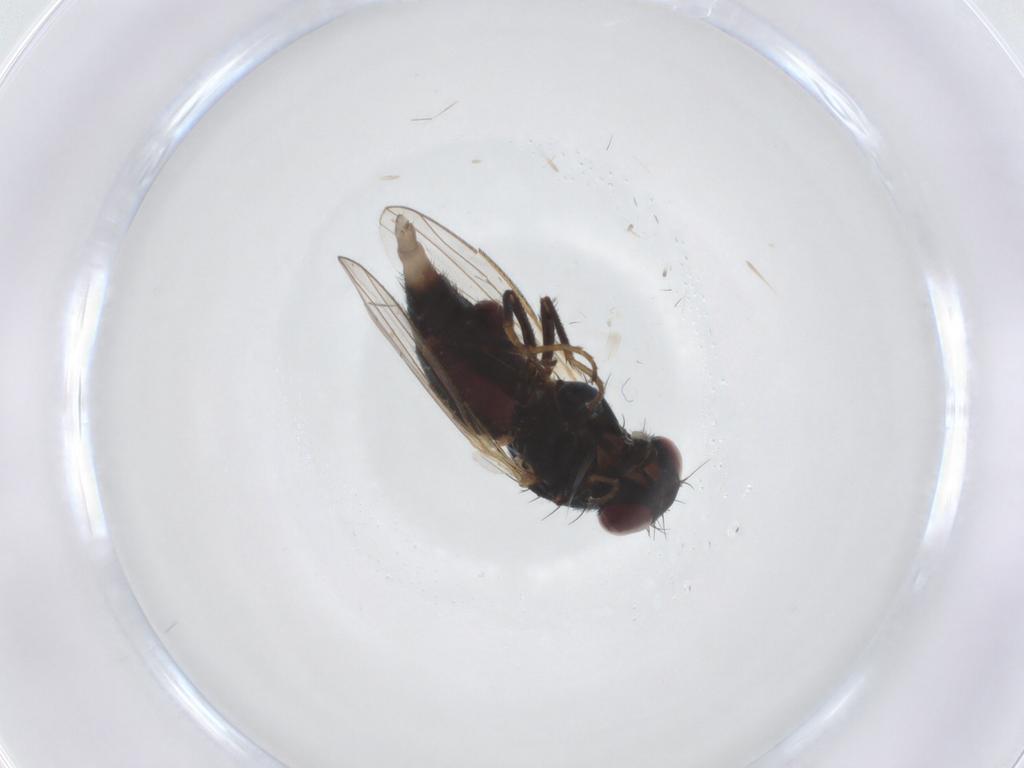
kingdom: Animalia
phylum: Arthropoda
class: Insecta
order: Diptera
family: Carnidae
